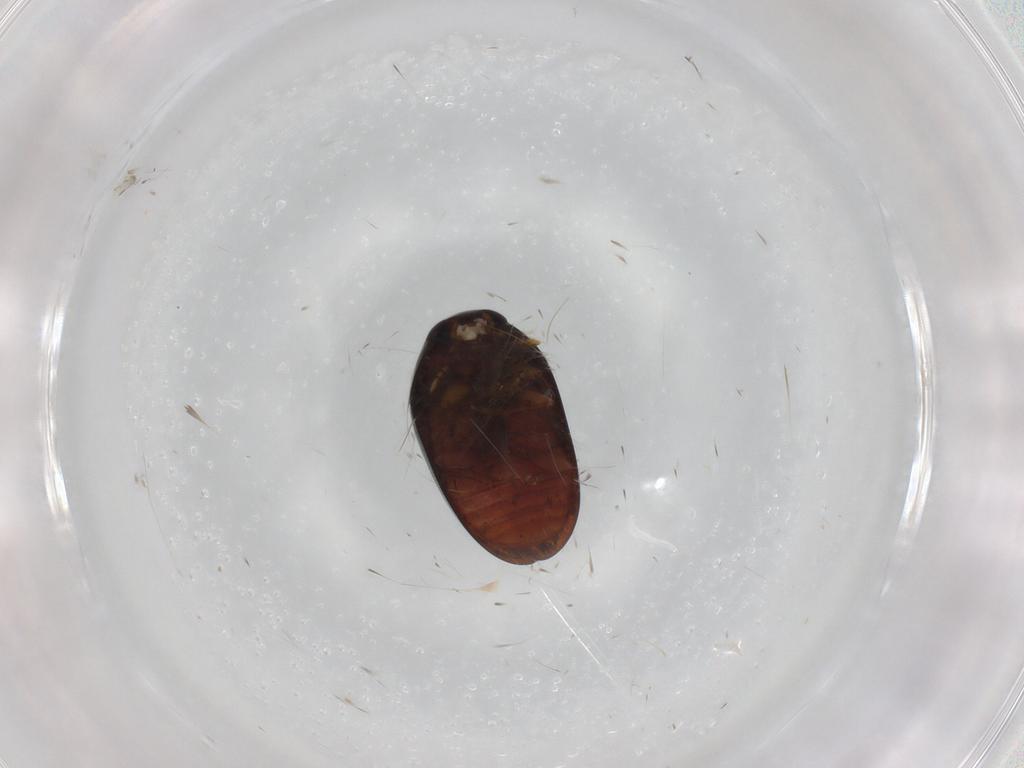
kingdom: Animalia
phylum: Arthropoda
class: Insecta
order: Coleoptera
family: Phalacridae
